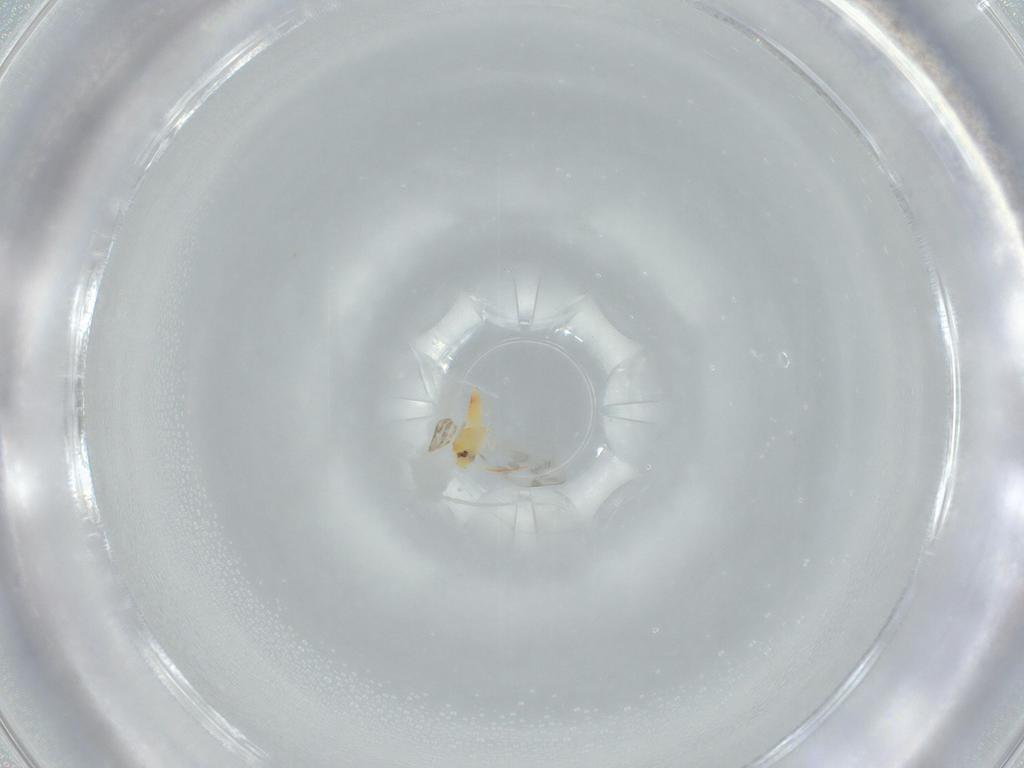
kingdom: Animalia
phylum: Arthropoda
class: Insecta
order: Hemiptera
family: Aleyrodidae
